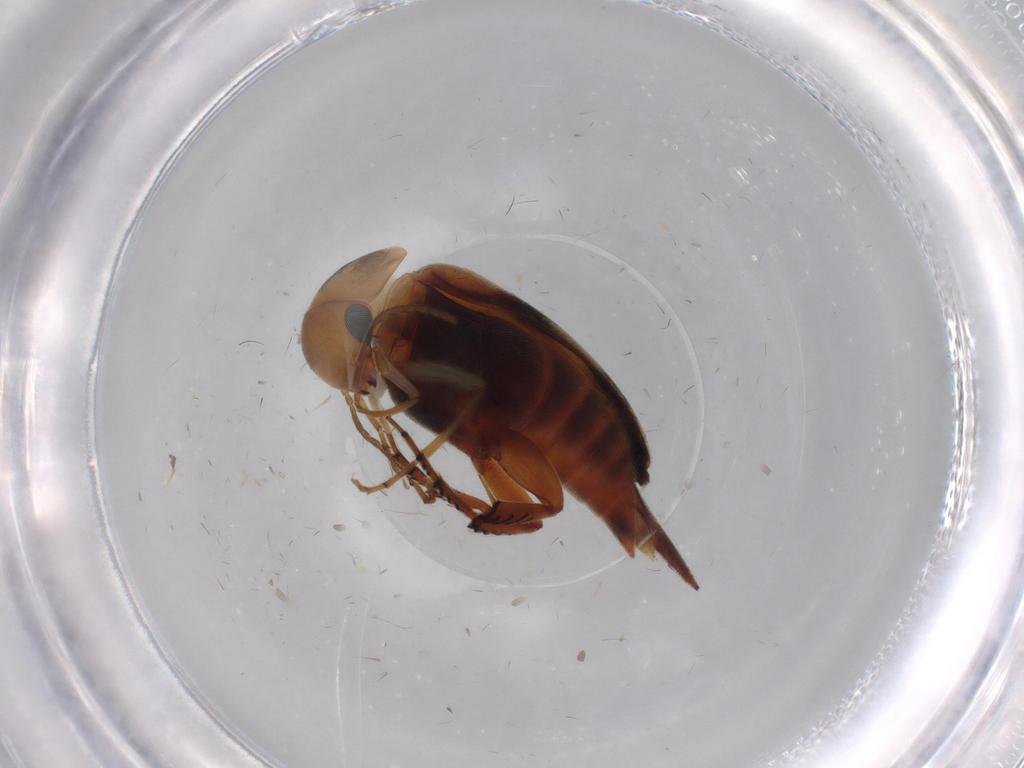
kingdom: Animalia
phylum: Arthropoda
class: Insecta
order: Coleoptera
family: Mordellidae
